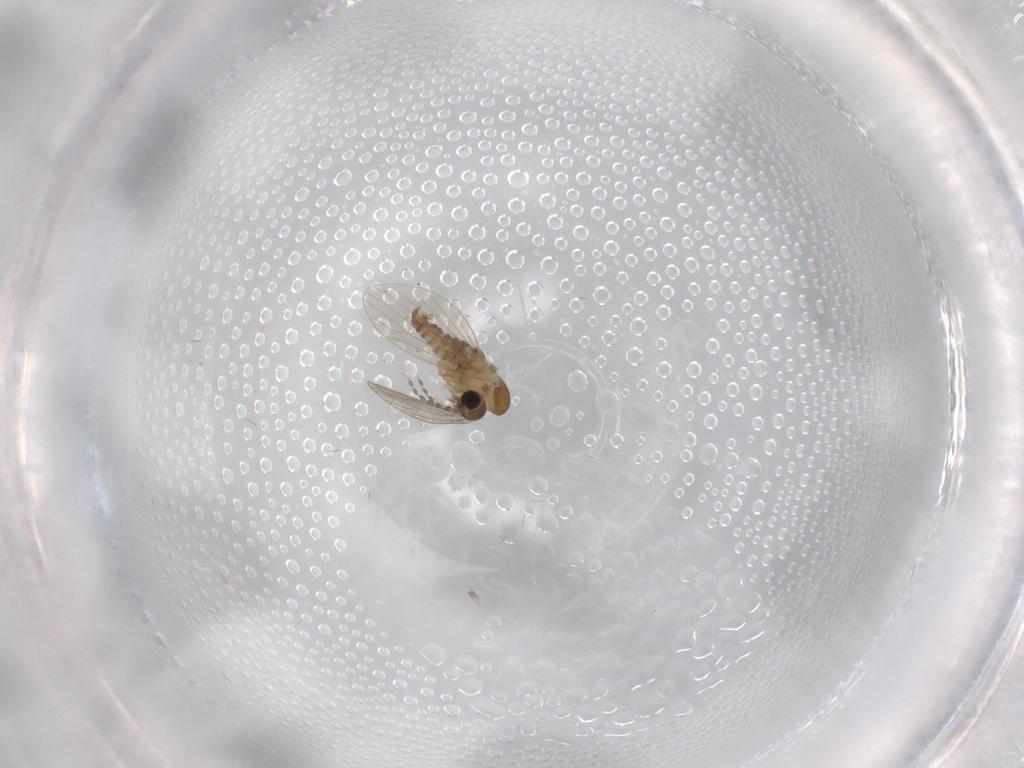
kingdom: Animalia
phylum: Arthropoda
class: Insecta
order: Diptera
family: Psychodidae
